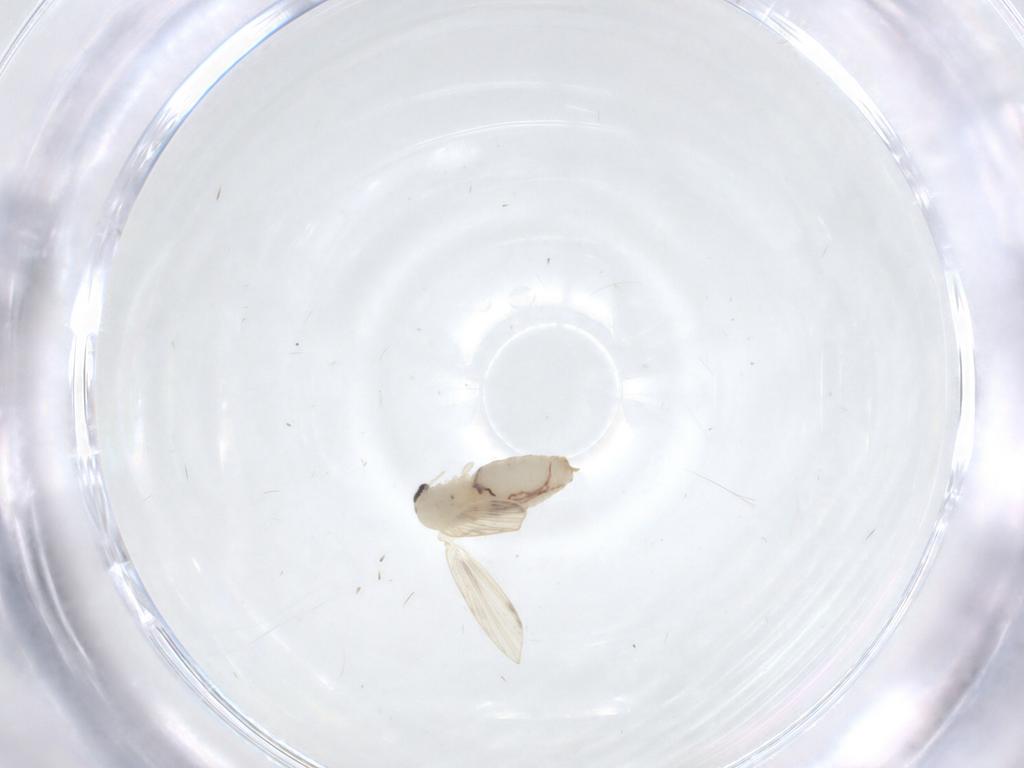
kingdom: Animalia
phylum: Arthropoda
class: Insecta
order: Diptera
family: Psychodidae
